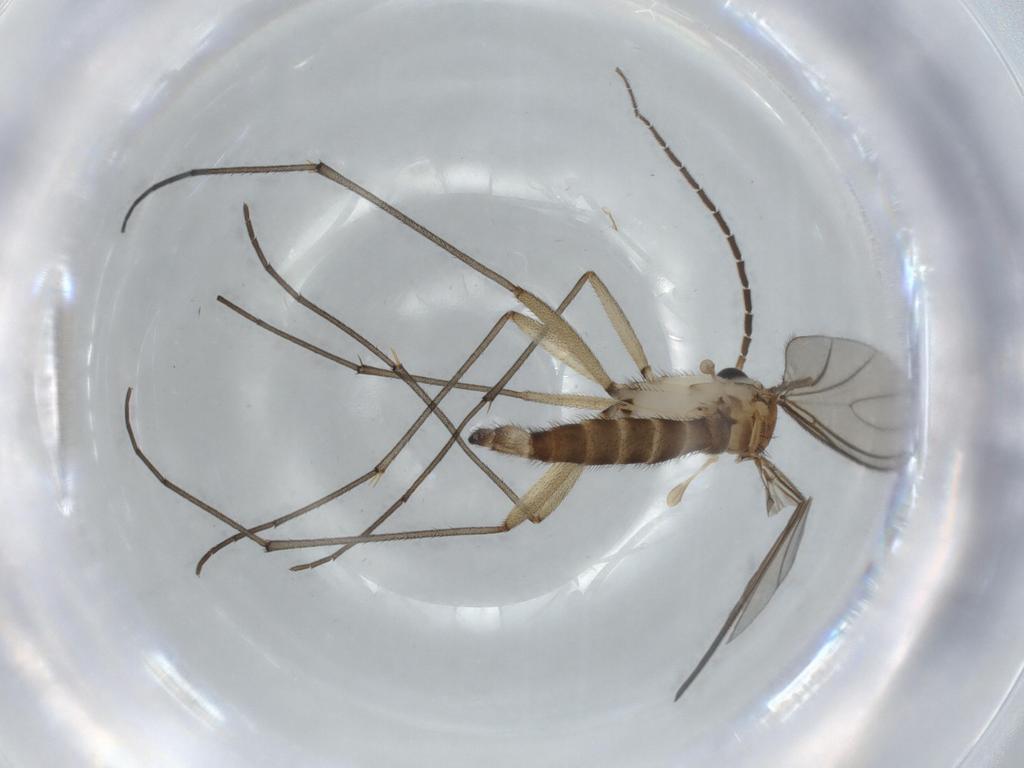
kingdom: Animalia
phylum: Arthropoda
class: Insecta
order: Diptera
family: Sciaridae
